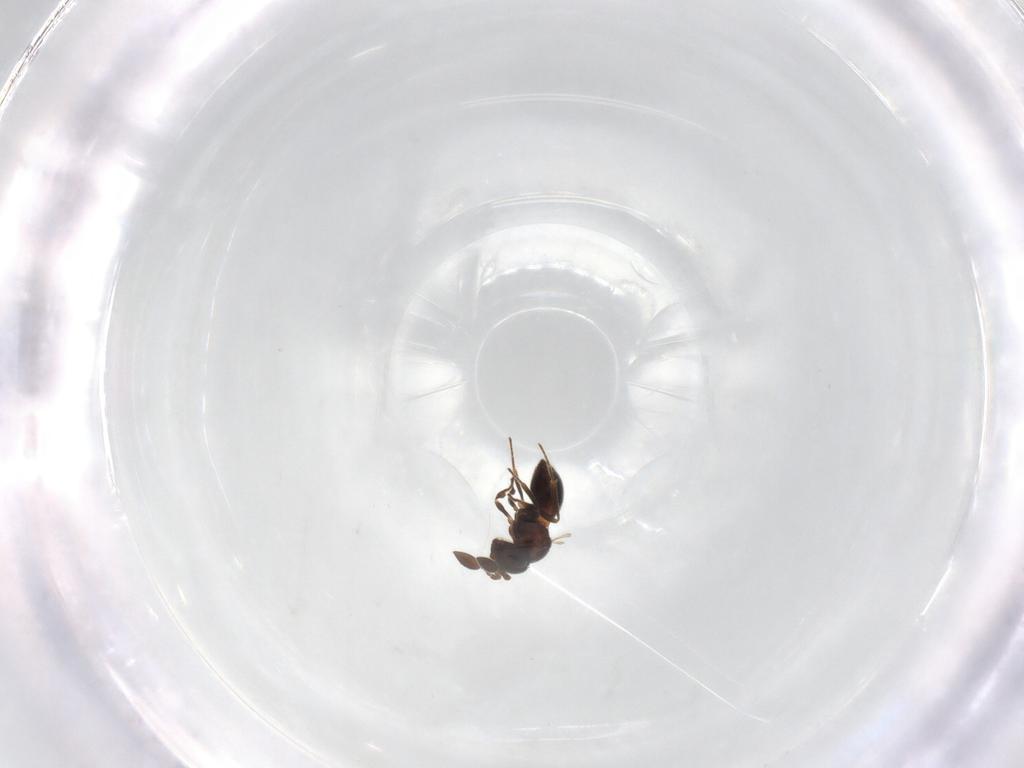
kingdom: Animalia
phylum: Arthropoda
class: Insecta
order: Hymenoptera
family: Scelionidae
